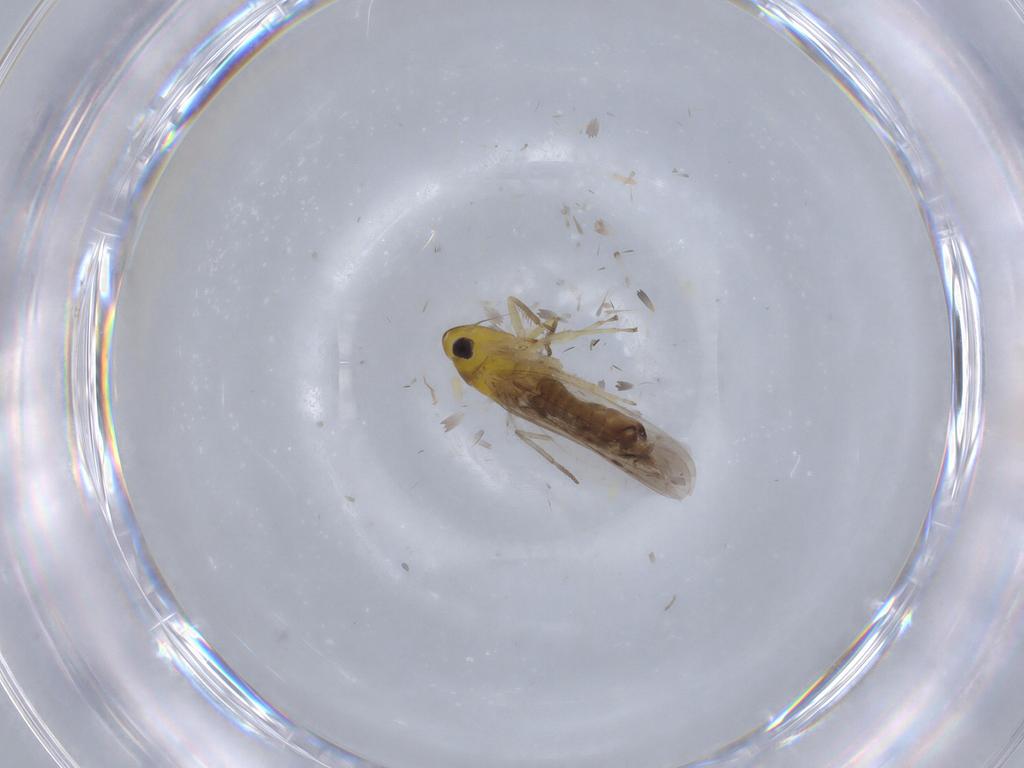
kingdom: Animalia
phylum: Arthropoda
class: Insecta
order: Hemiptera
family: Cicadellidae
